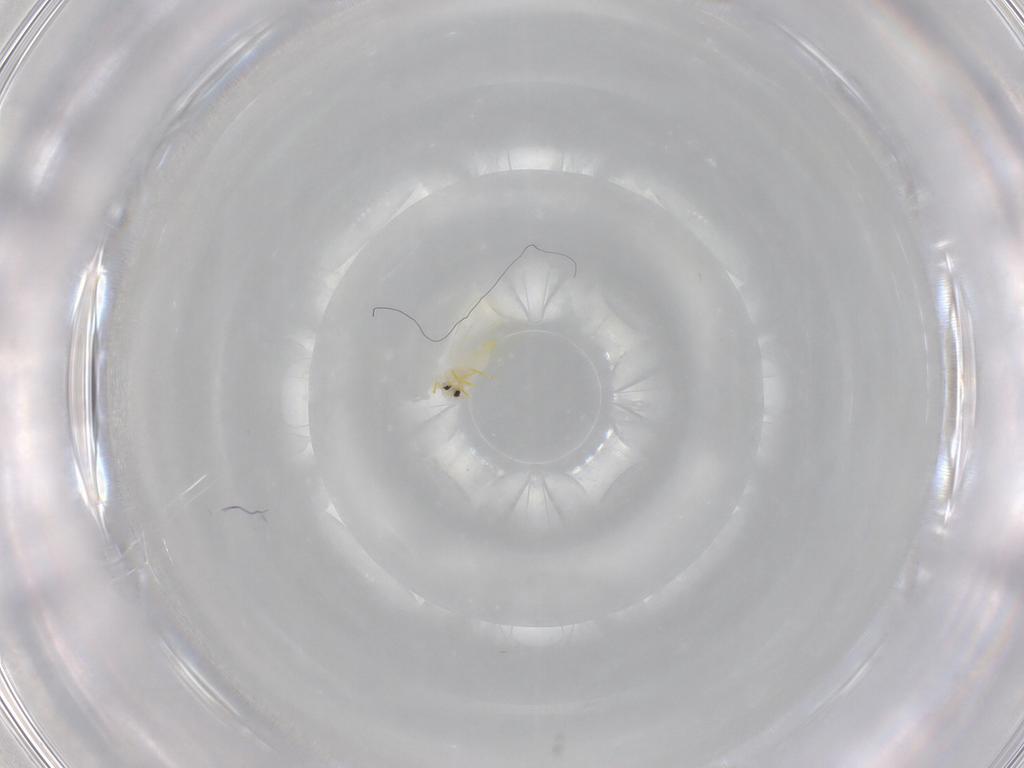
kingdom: Animalia
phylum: Arthropoda
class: Insecta
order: Hemiptera
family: Aleyrodidae
